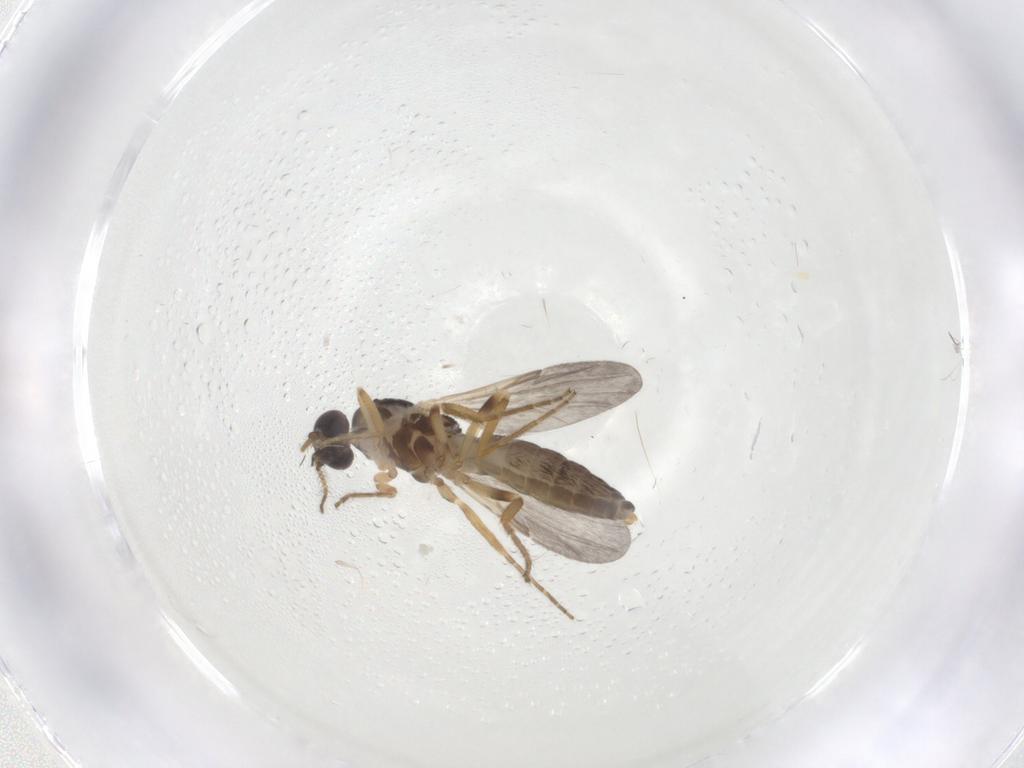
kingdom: Animalia
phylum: Arthropoda
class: Insecta
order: Diptera
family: Ceratopogonidae
